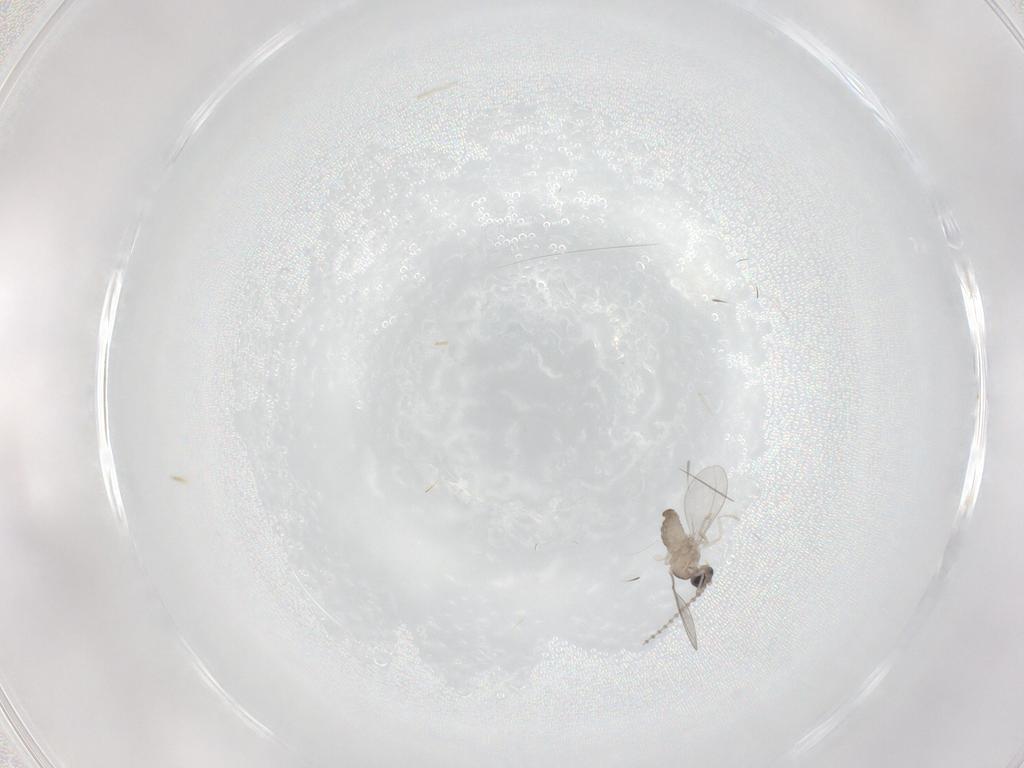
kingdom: Animalia
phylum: Arthropoda
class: Insecta
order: Diptera
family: Cecidomyiidae
